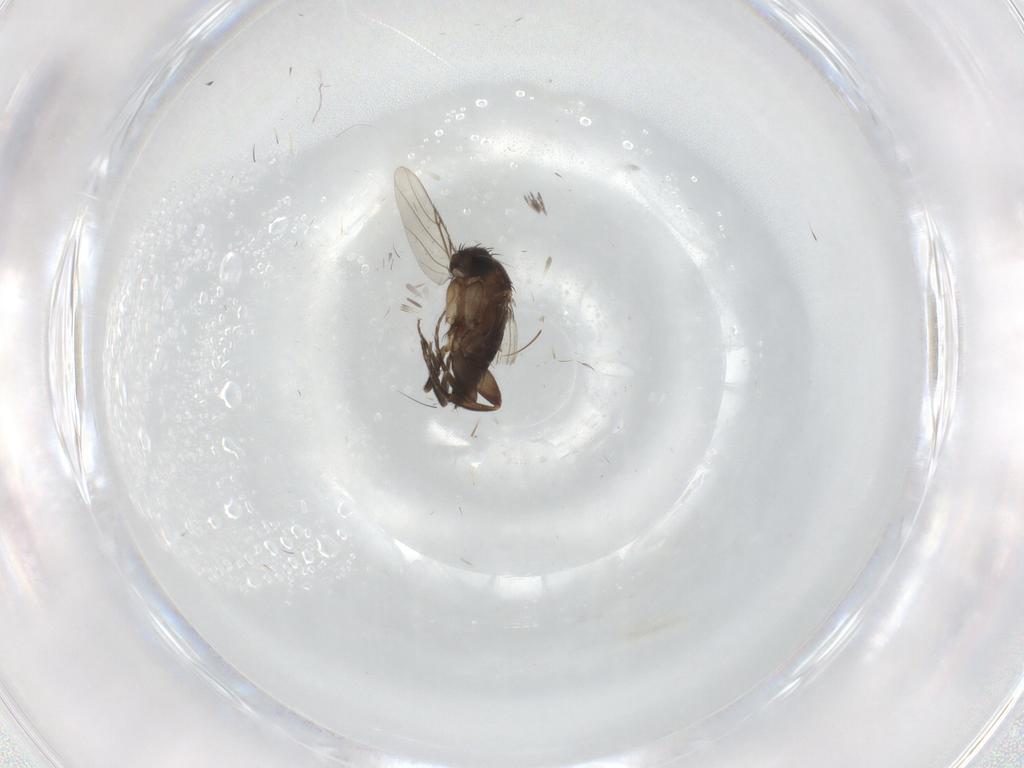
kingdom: Animalia
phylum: Arthropoda
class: Insecta
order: Diptera
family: Phoridae
